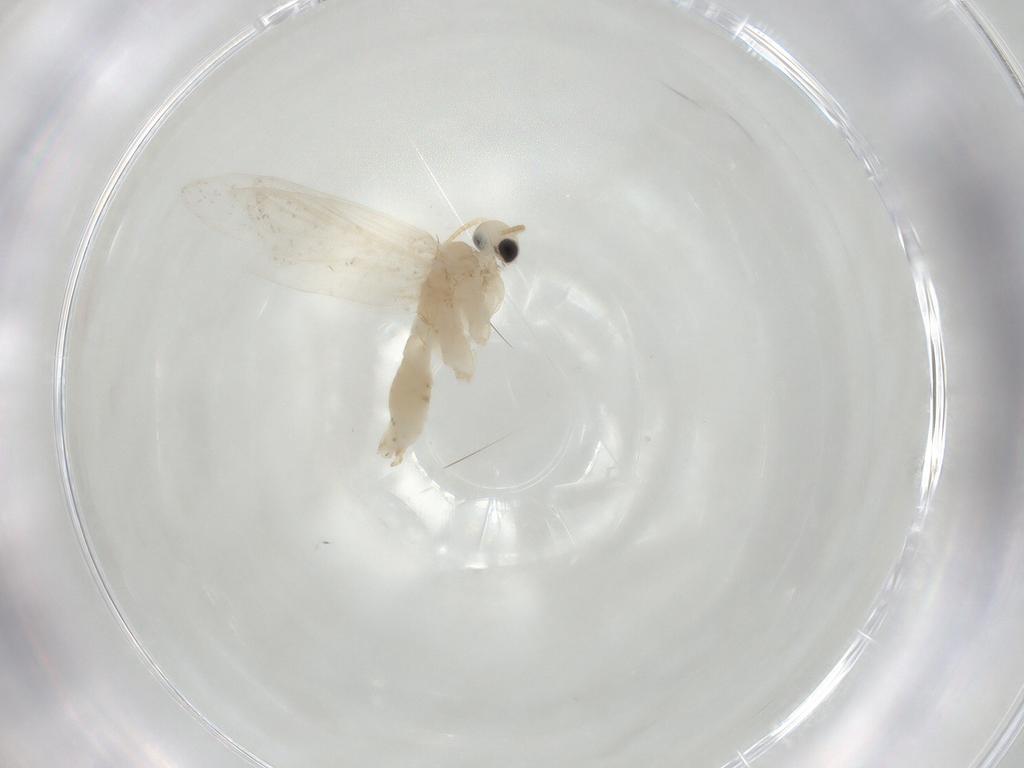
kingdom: Animalia
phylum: Arthropoda
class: Insecta
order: Lepidoptera
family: Psychidae
